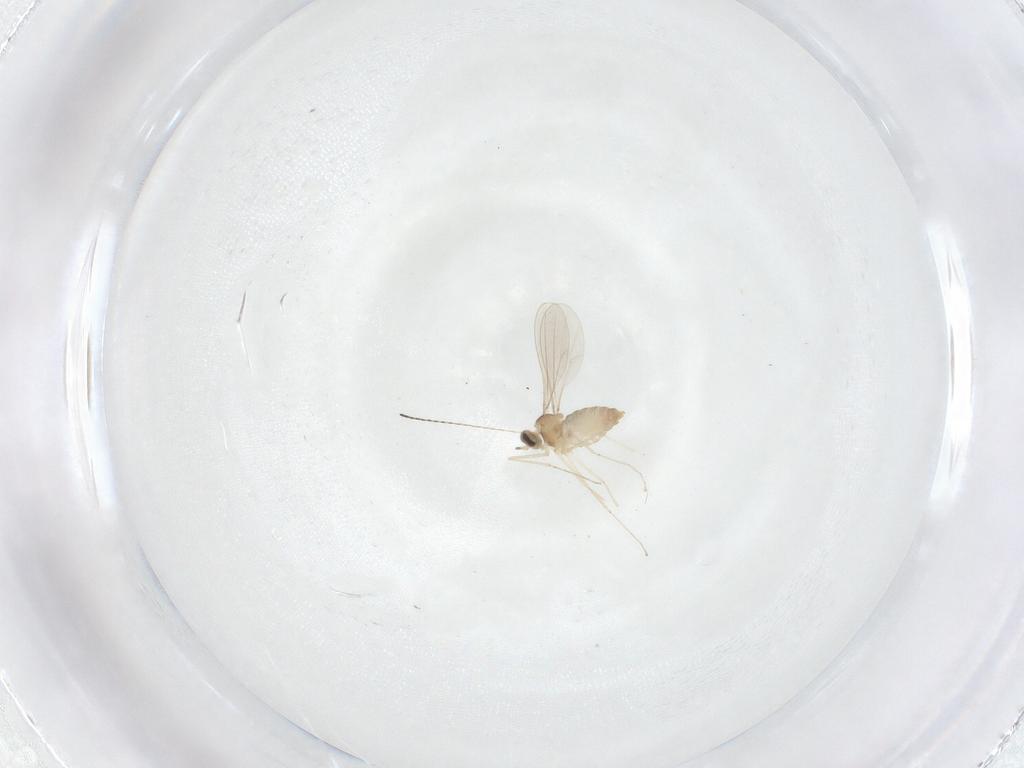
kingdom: Animalia
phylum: Arthropoda
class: Insecta
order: Diptera
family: Cecidomyiidae
